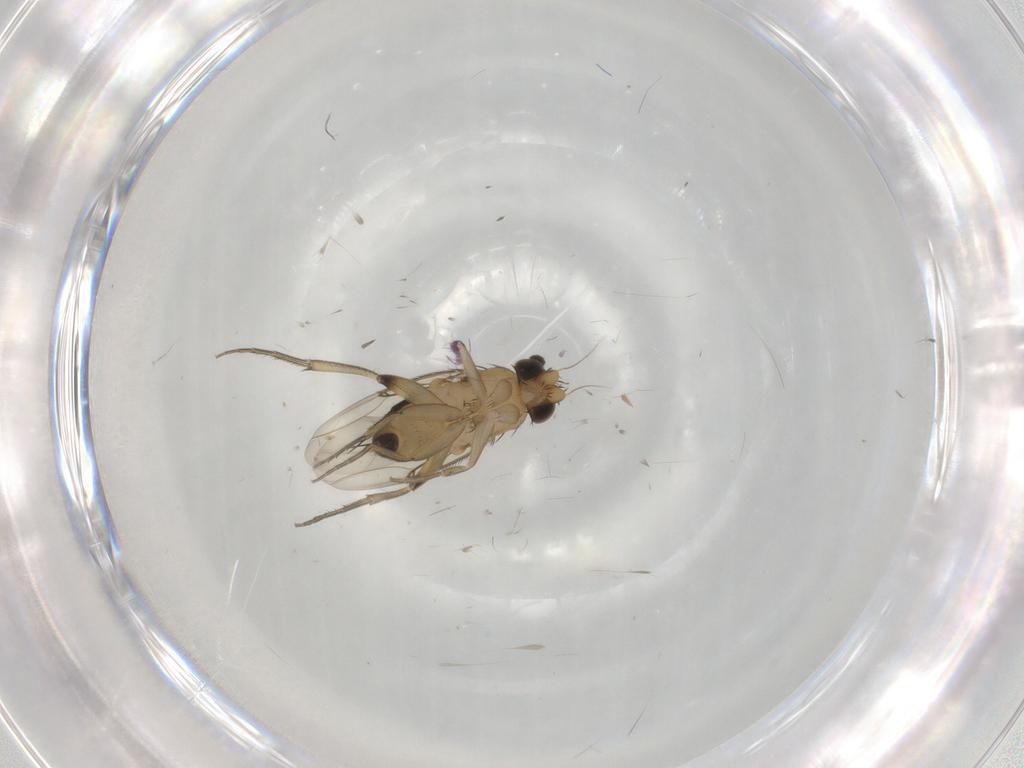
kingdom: Animalia
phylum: Arthropoda
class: Insecta
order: Diptera
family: Phoridae
